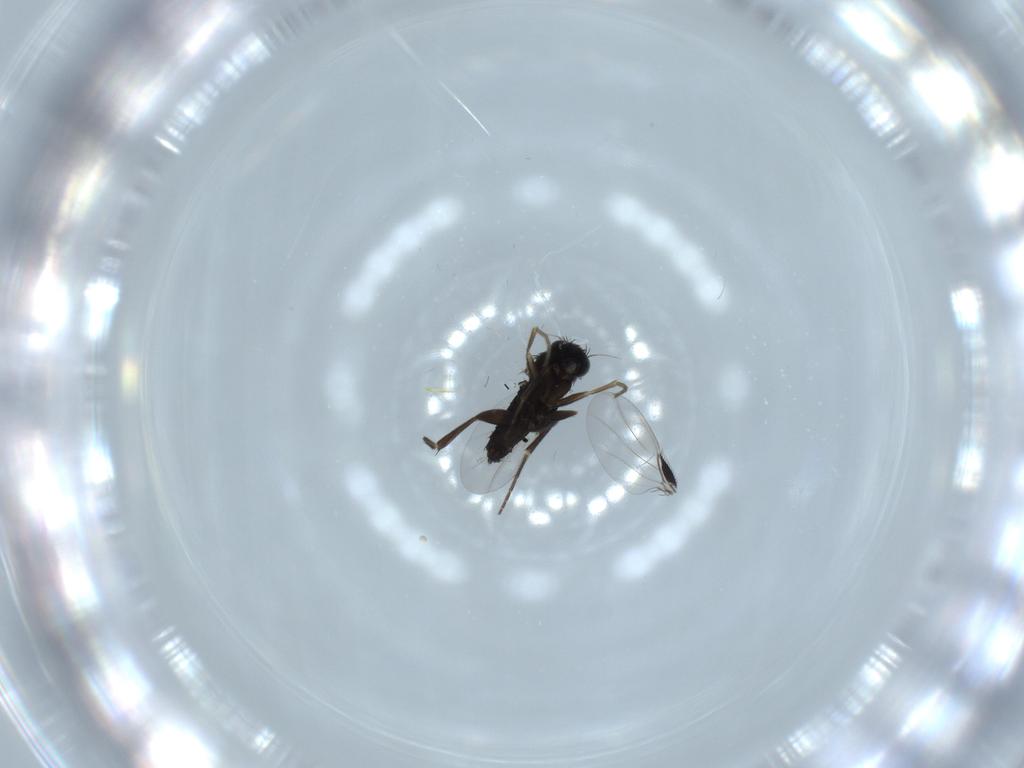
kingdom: Animalia
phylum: Arthropoda
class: Insecta
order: Diptera
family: Phoridae
